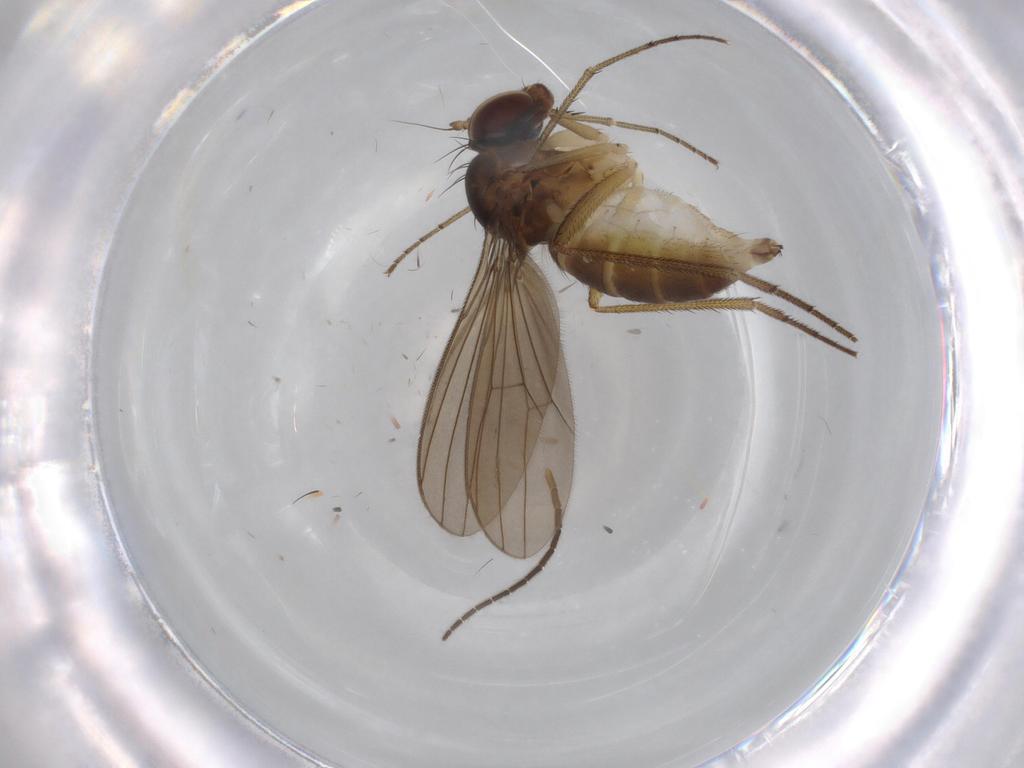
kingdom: Animalia
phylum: Arthropoda
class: Insecta
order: Diptera
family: Dolichopodidae
